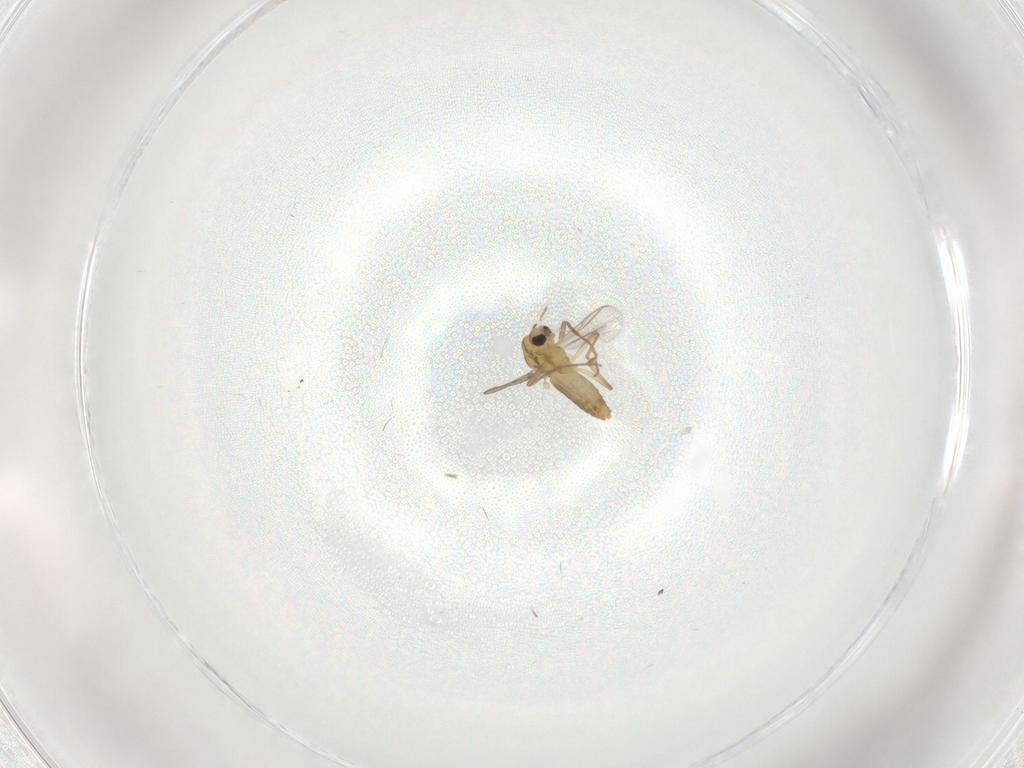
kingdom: Animalia
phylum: Arthropoda
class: Insecta
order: Diptera
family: Chironomidae
